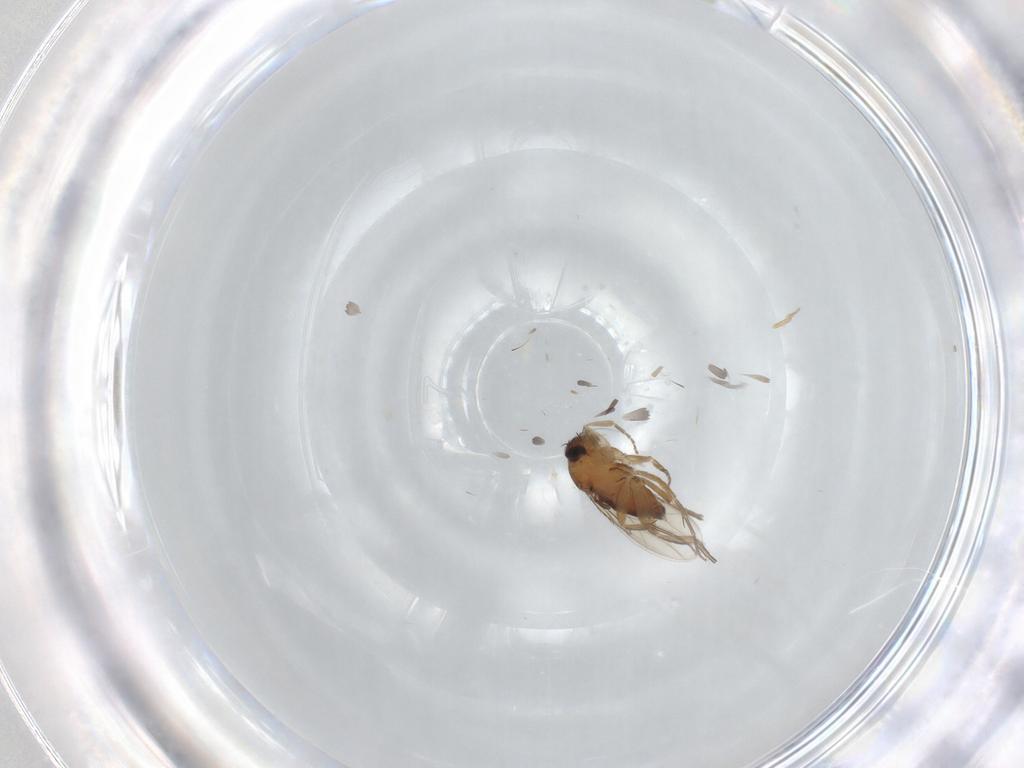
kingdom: Animalia
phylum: Arthropoda
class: Insecta
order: Diptera
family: Phoridae
